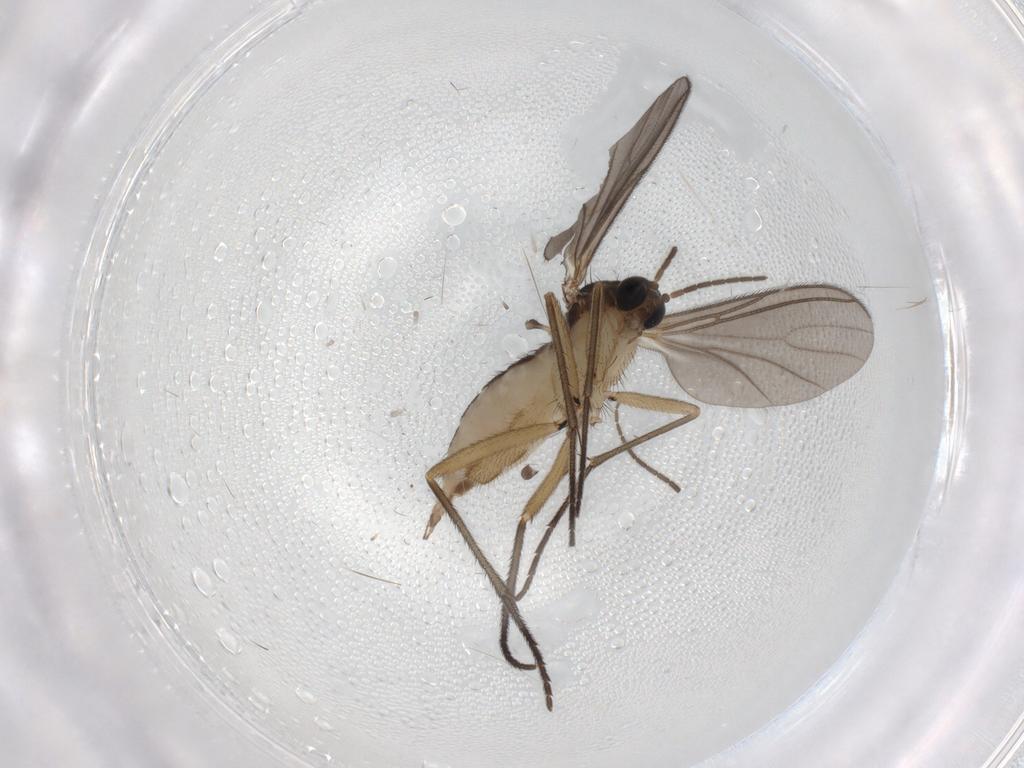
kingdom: Animalia
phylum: Arthropoda
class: Insecta
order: Diptera
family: Sciaridae
